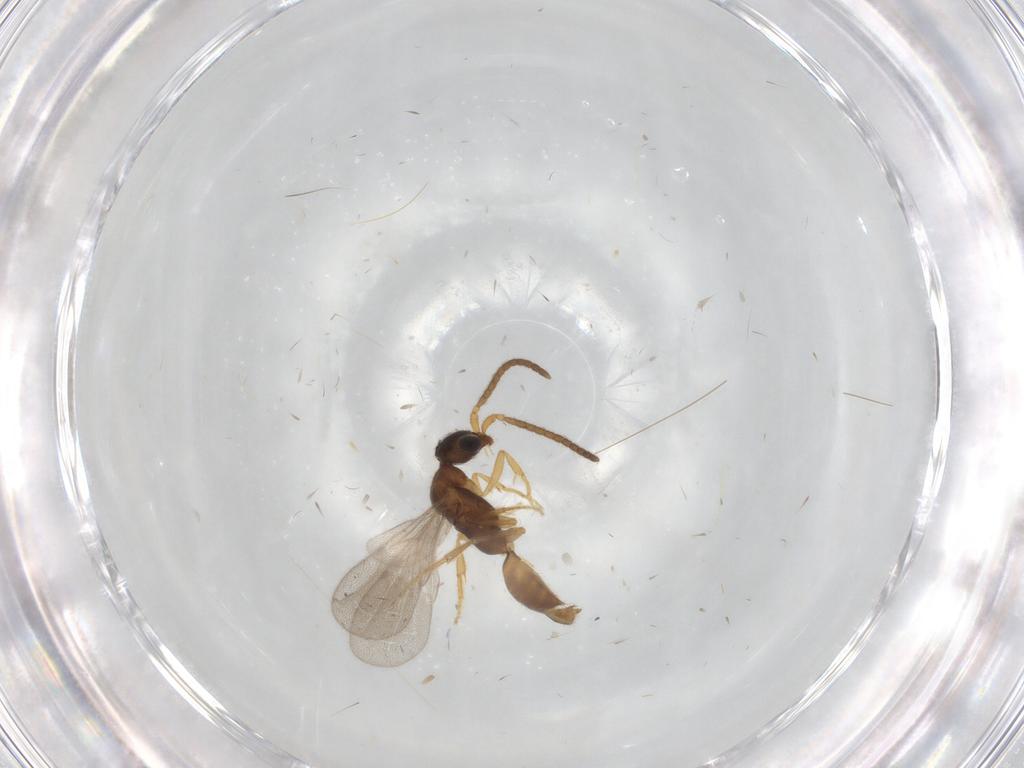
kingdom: Animalia
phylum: Arthropoda
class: Insecta
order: Hymenoptera
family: Bethylidae
